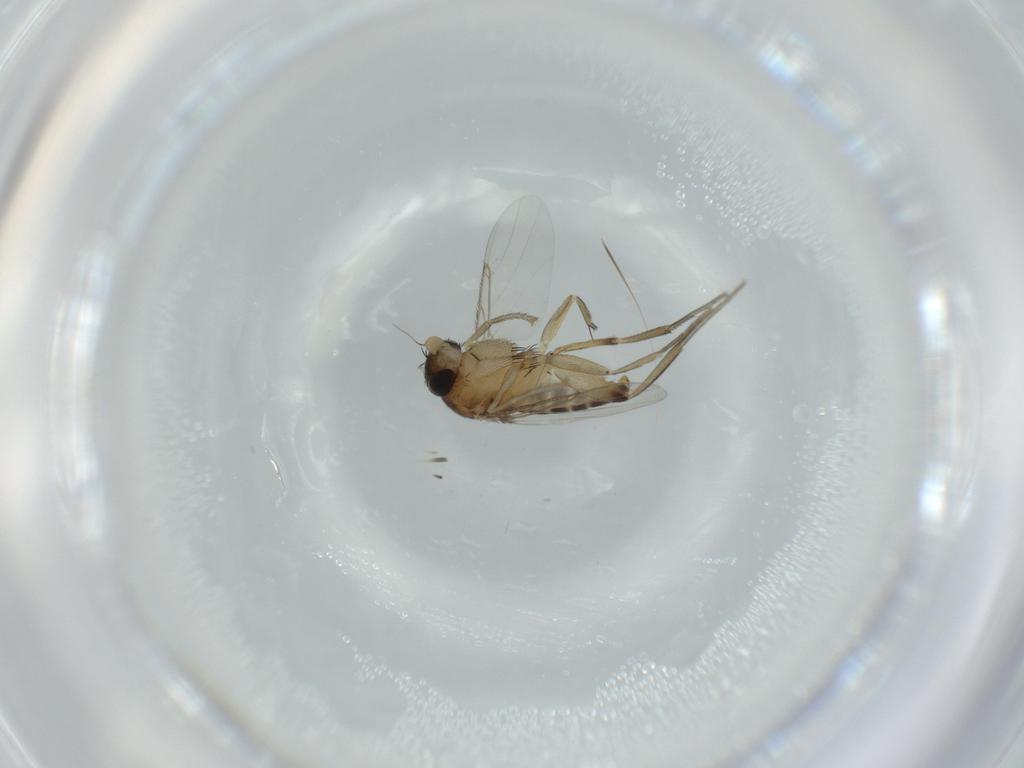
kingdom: Animalia
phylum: Arthropoda
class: Insecta
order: Diptera
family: Phoridae
